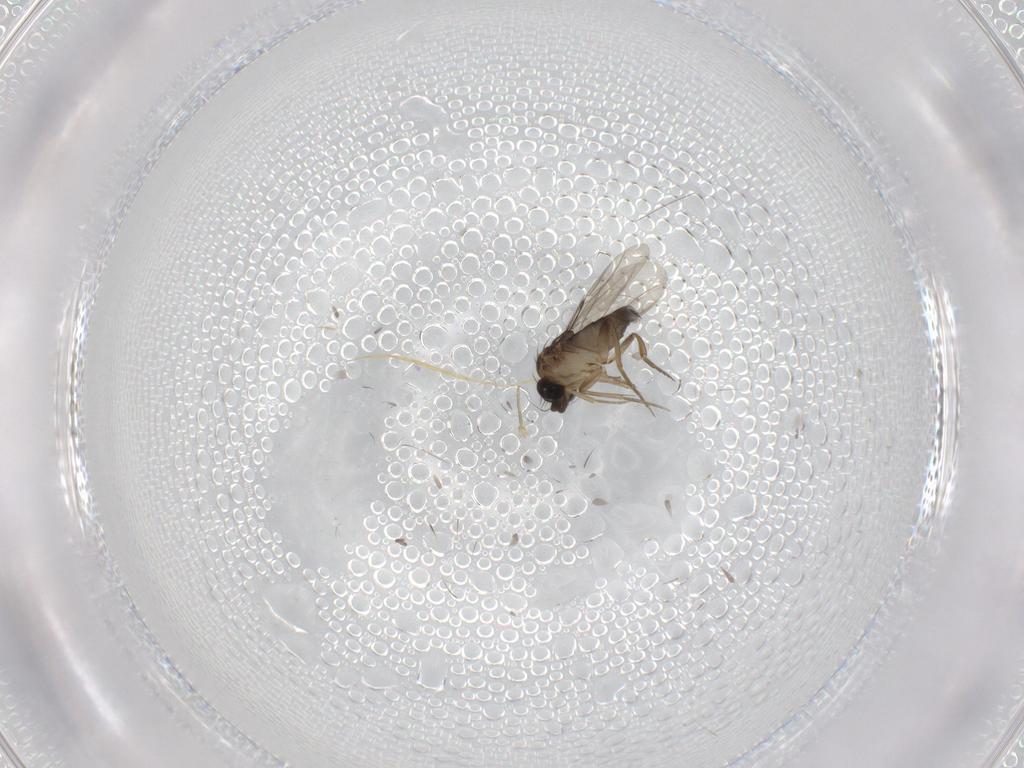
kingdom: Animalia
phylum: Arthropoda
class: Insecta
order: Diptera
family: Phoridae
